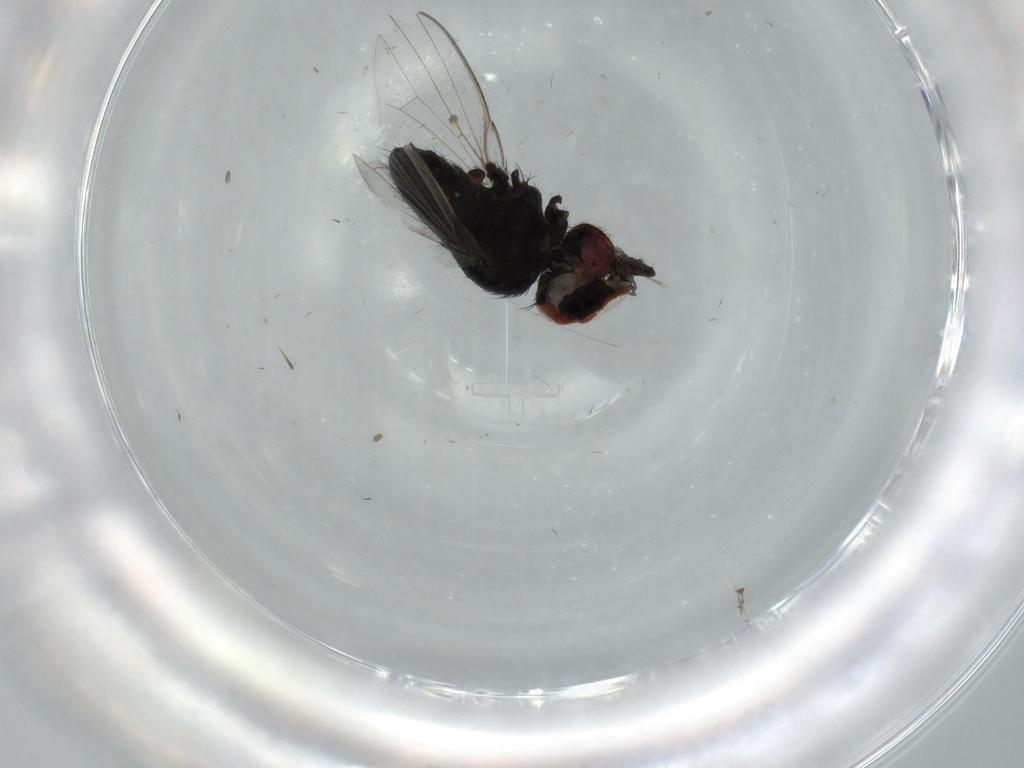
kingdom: Animalia
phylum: Arthropoda
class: Insecta
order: Diptera
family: Milichiidae
